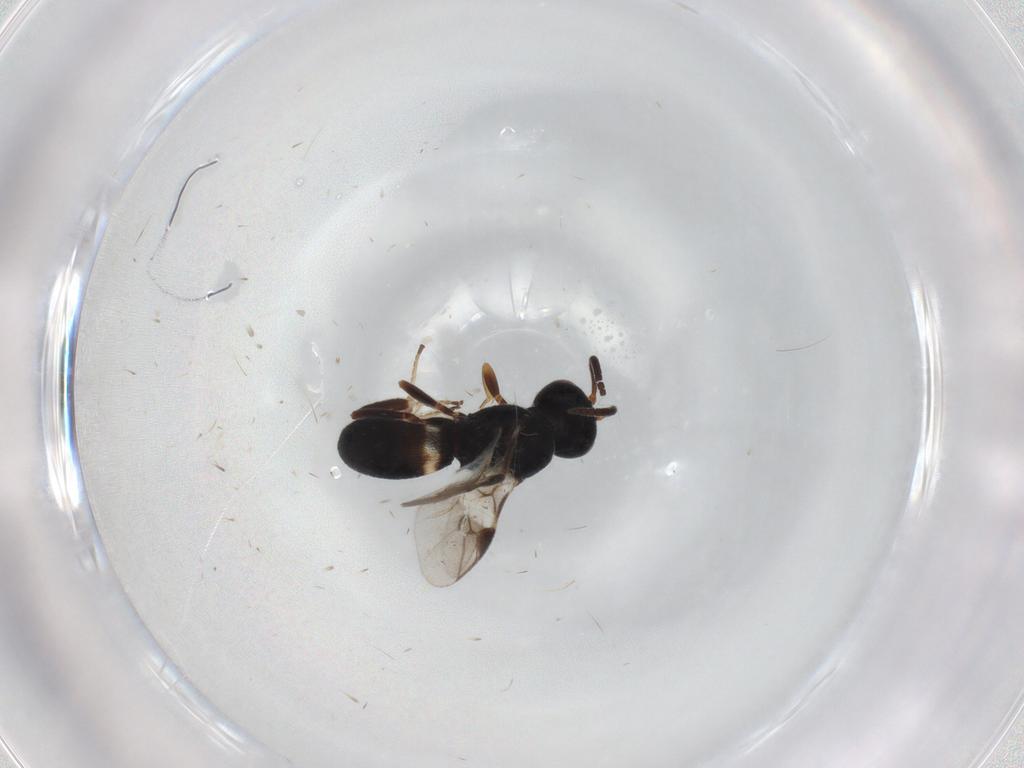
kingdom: Animalia
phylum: Arthropoda
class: Insecta
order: Hymenoptera
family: Braconidae
